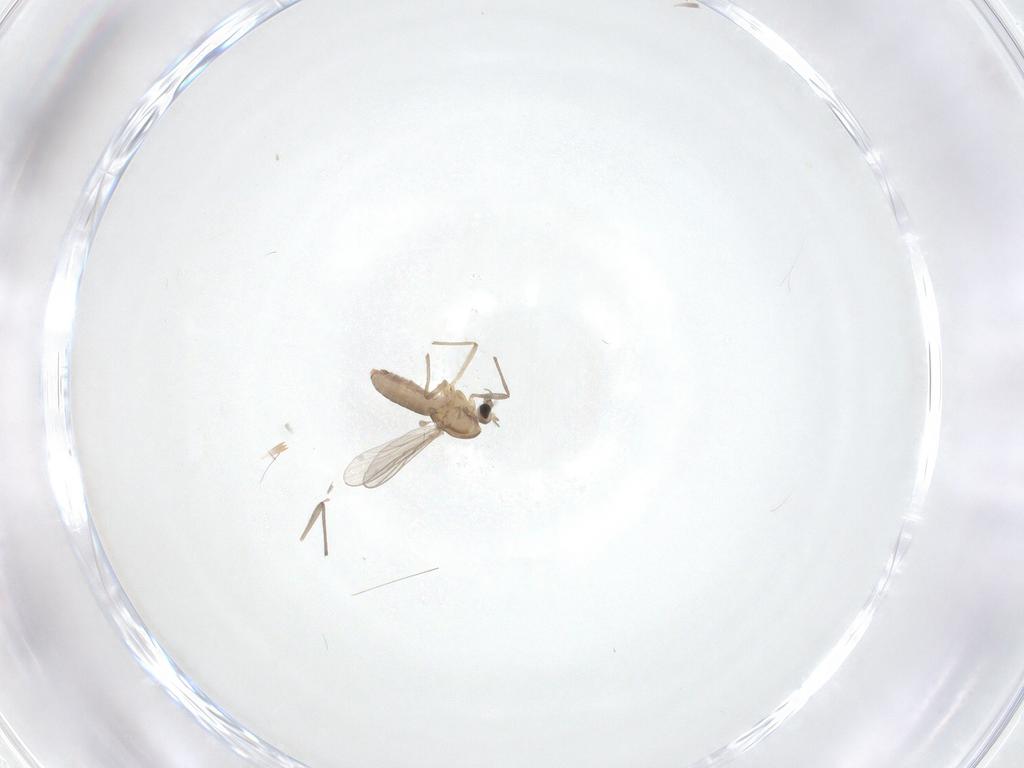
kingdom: Animalia
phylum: Arthropoda
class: Insecta
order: Diptera
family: Chironomidae
